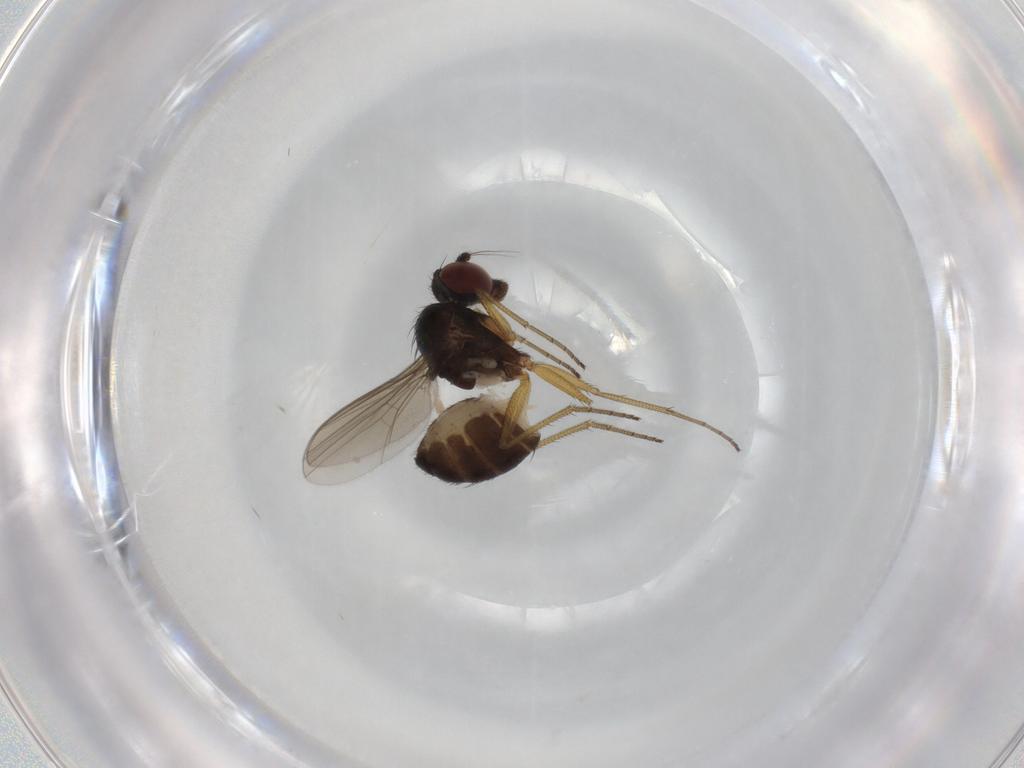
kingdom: Animalia
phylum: Arthropoda
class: Insecta
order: Diptera
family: Dolichopodidae
